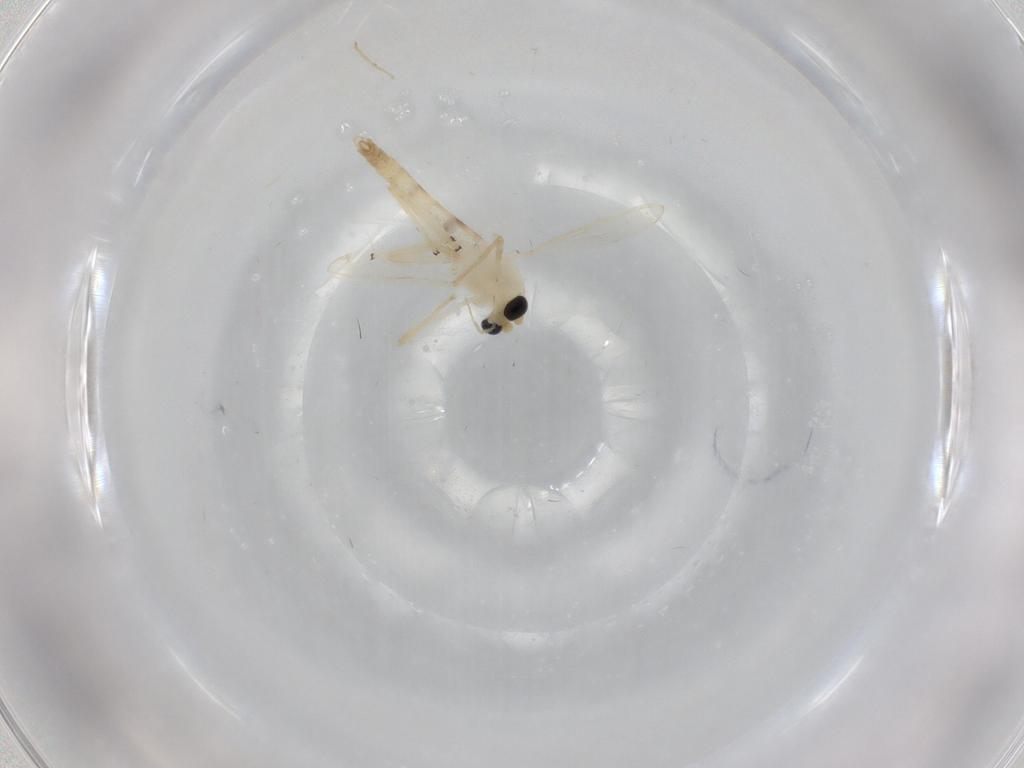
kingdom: Animalia
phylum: Arthropoda
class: Insecta
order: Diptera
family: Chironomidae
